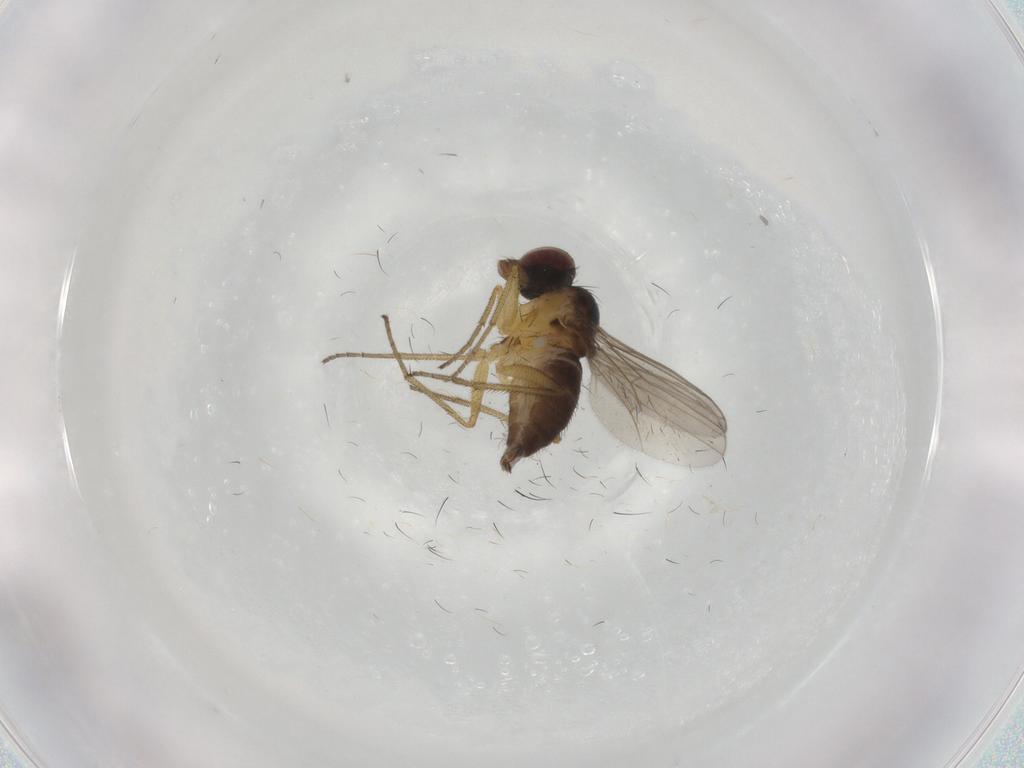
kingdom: Animalia
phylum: Arthropoda
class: Insecta
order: Diptera
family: Dolichopodidae
